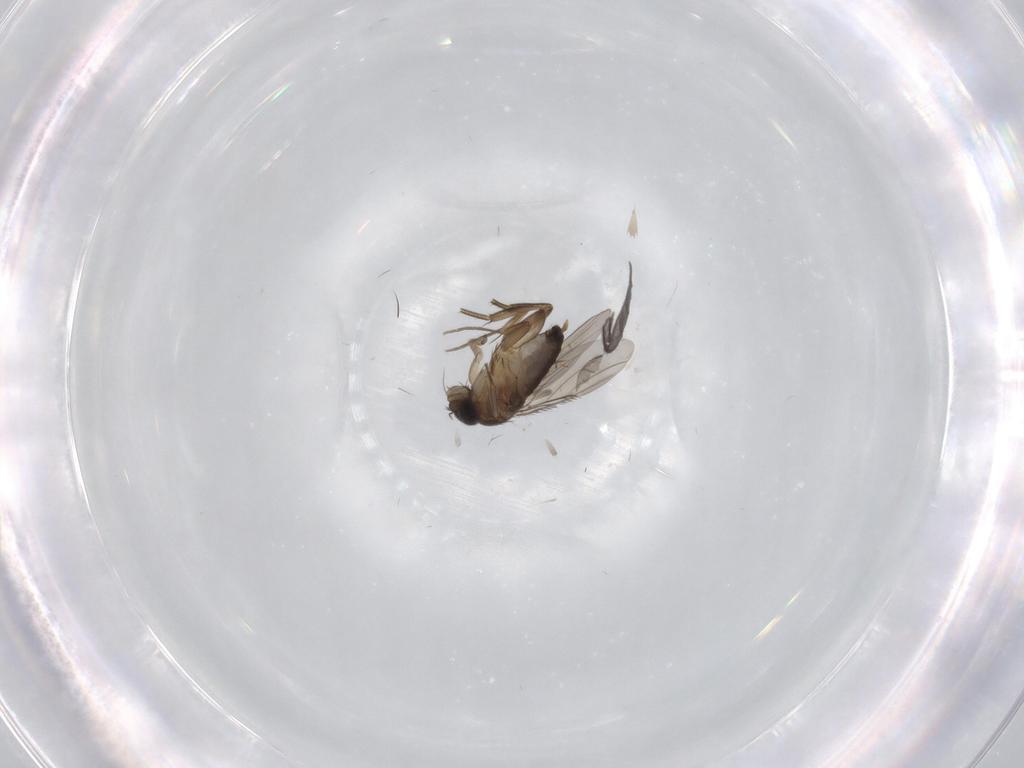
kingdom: Animalia
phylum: Arthropoda
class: Insecta
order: Diptera
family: Phoridae
